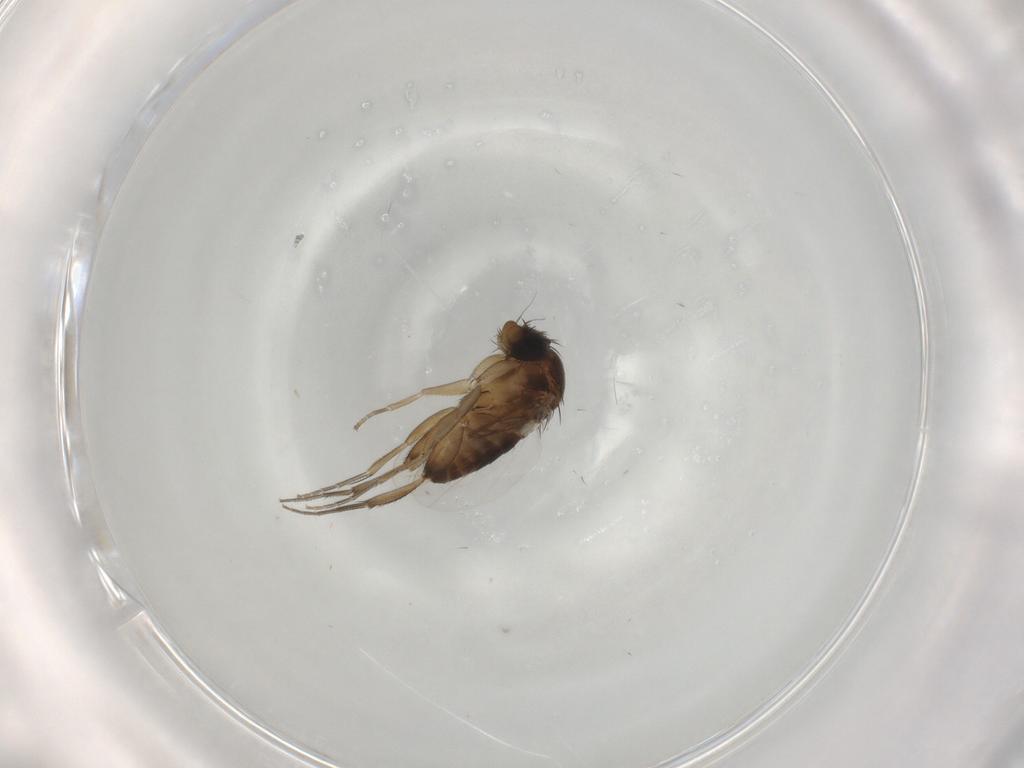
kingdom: Animalia
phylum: Arthropoda
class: Insecta
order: Diptera
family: Phoridae
